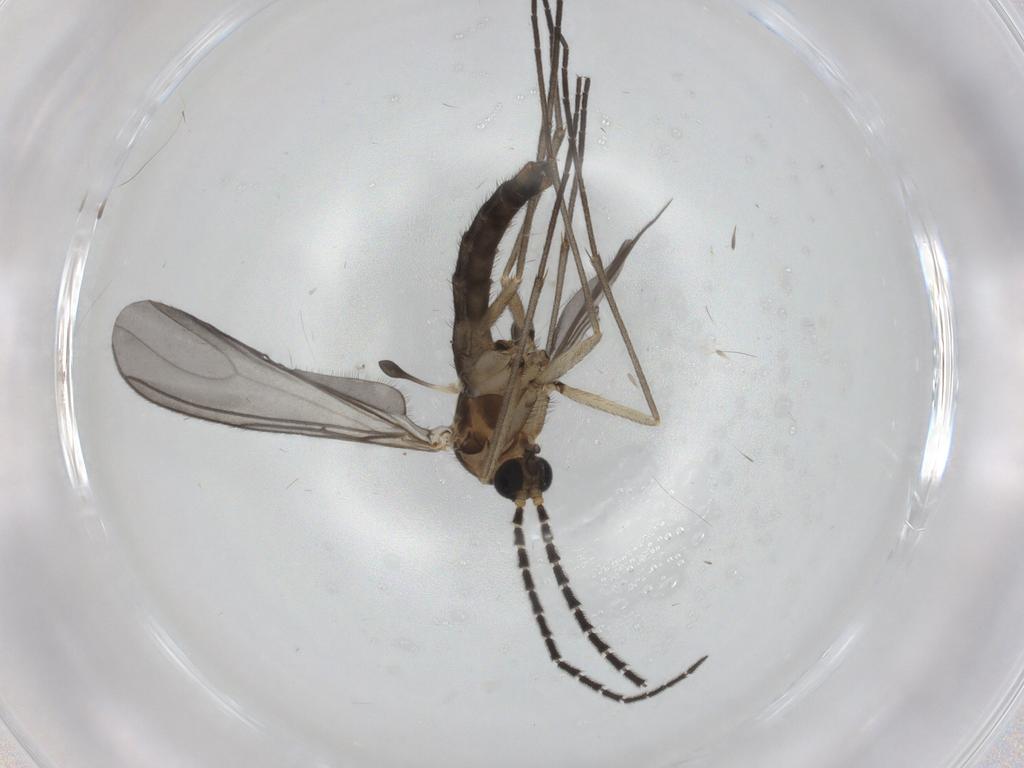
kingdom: Animalia
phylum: Arthropoda
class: Insecta
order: Diptera
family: Sciaridae
